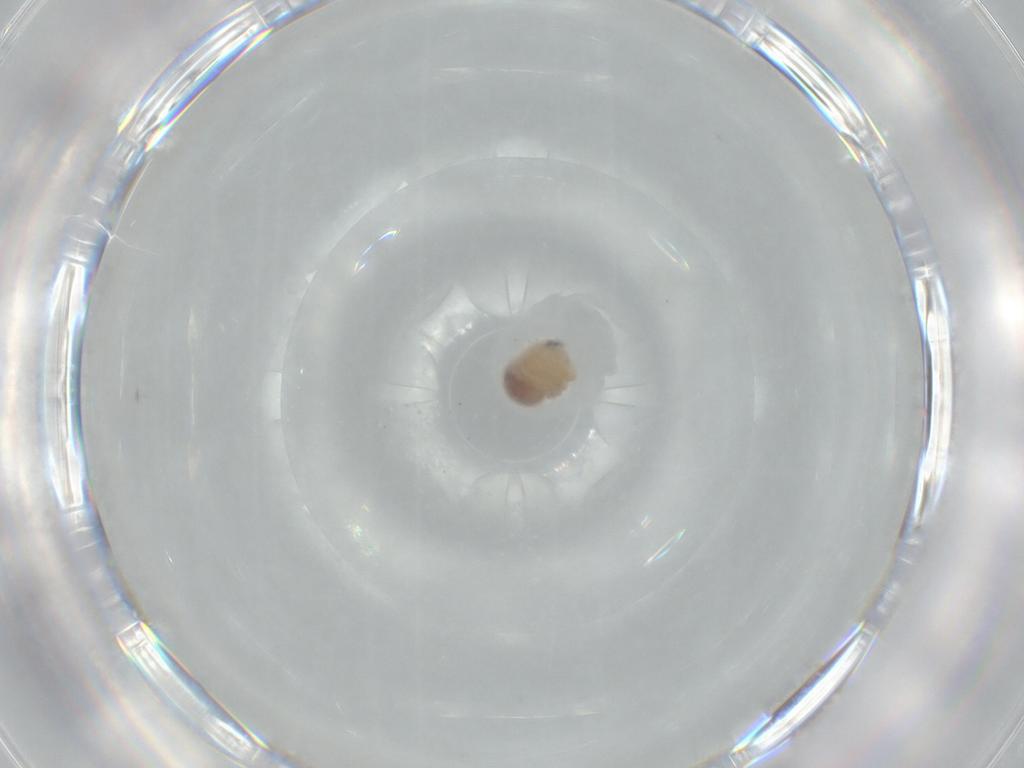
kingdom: Animalia
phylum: Arthropoda
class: Arachnida
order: Araneae
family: Pholcidae
